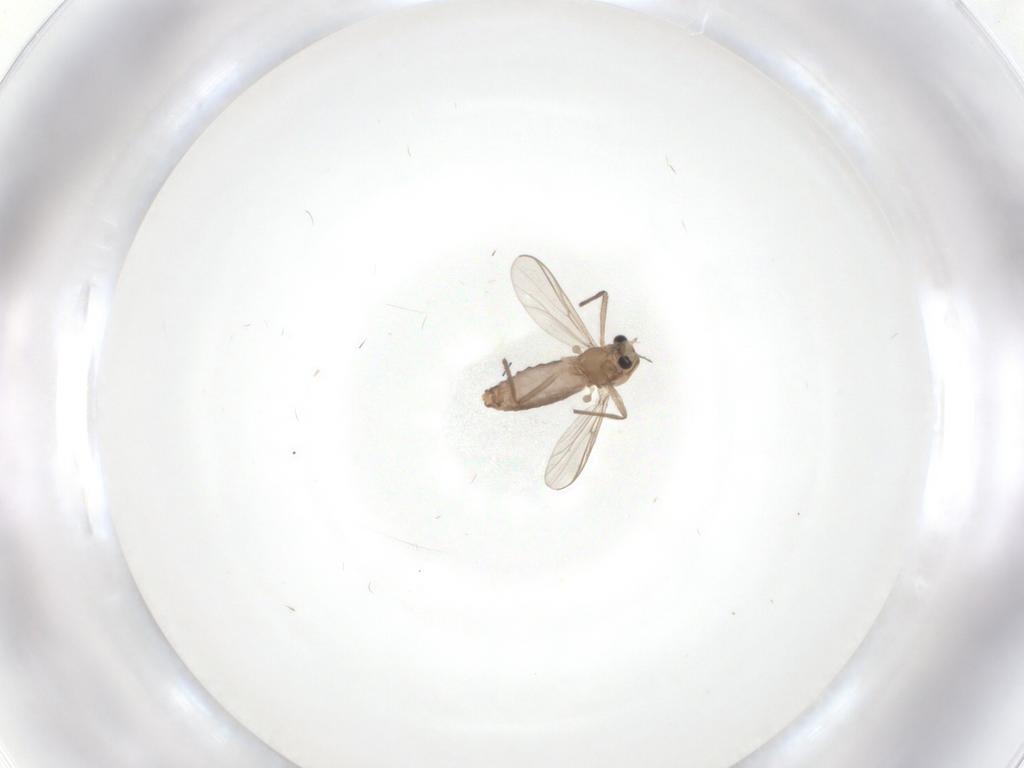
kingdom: Animalia
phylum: Arthropoda
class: Insecta
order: Diptera
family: Chironomidae
